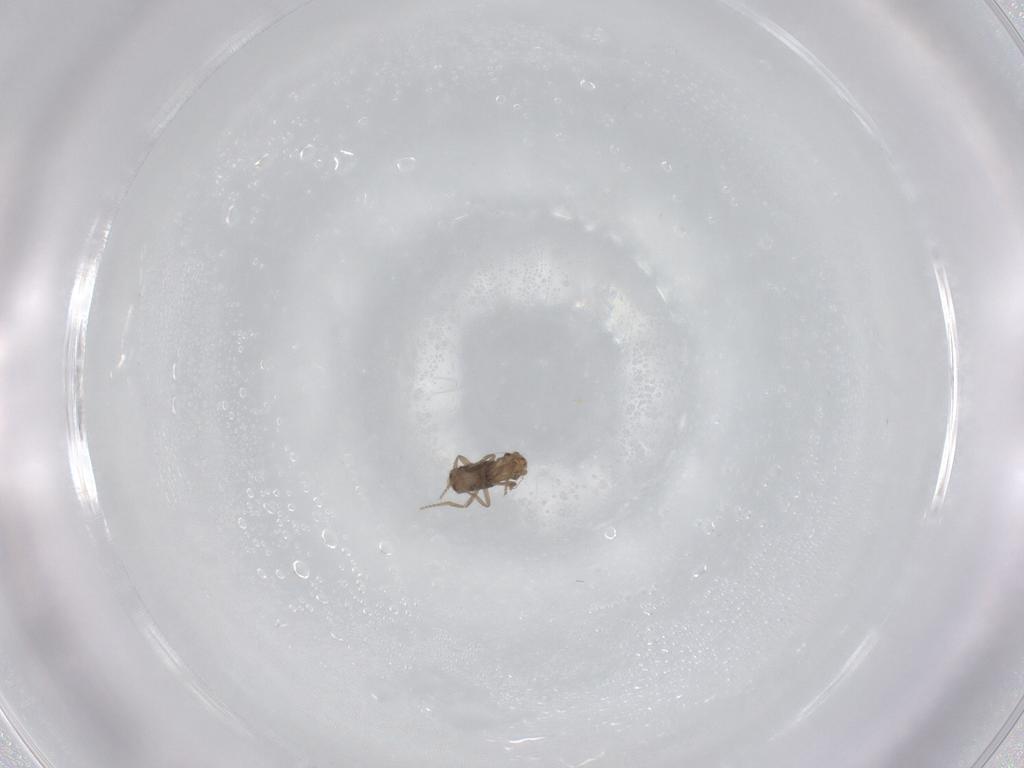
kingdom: Animalia
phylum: Arthropoda
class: Insecta
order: Diptera
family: Phoridae
